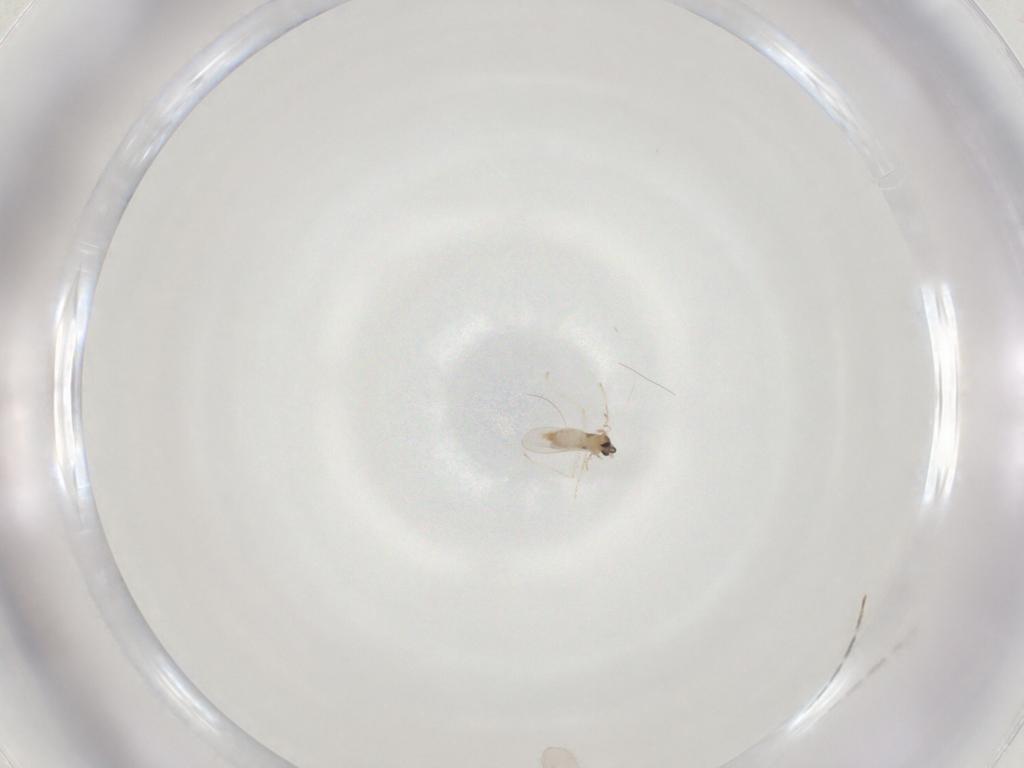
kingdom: Animalia
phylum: Arthropoda
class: Insecta
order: Diptera
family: Cecidomyiidae
